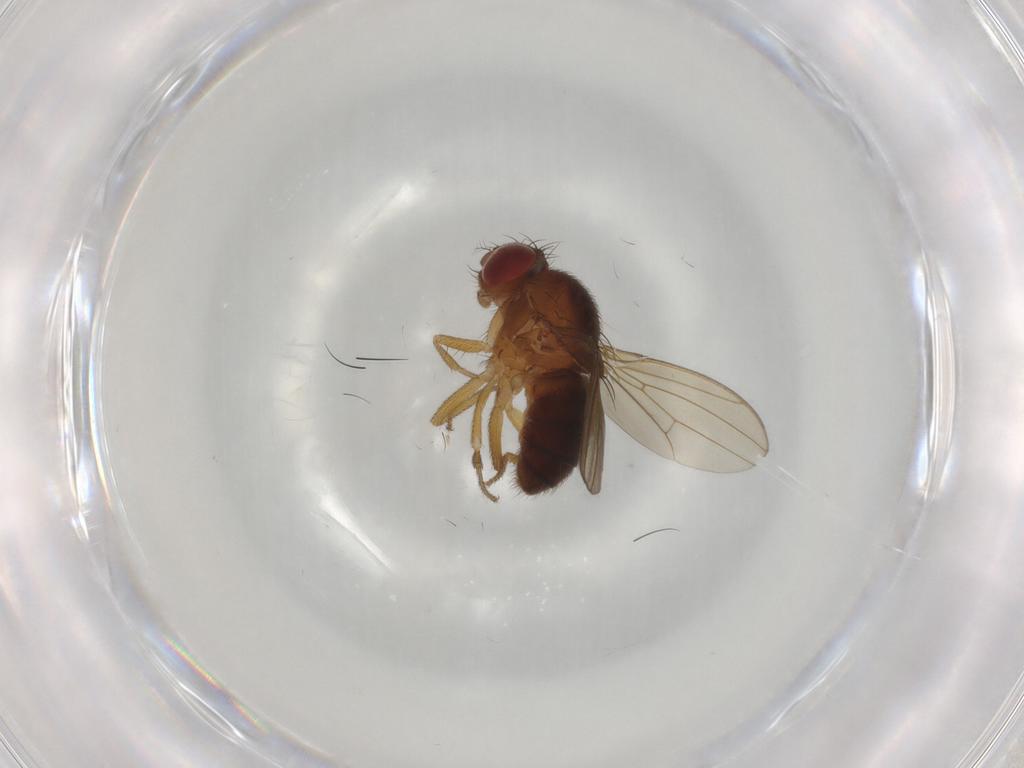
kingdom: Animalia
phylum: Arthropoda
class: Insecta
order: Diptera
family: Drosophilidae
